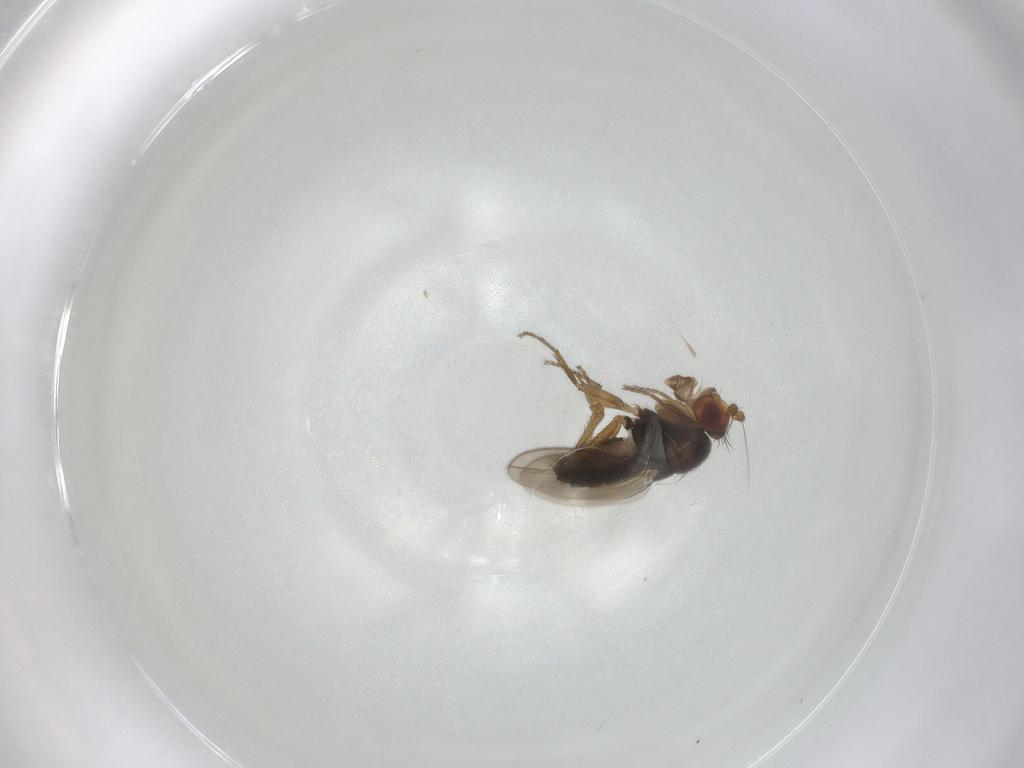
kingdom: Animalia
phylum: Arthropoda
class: Insecta
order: Diptera
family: Sphaeroceridae
